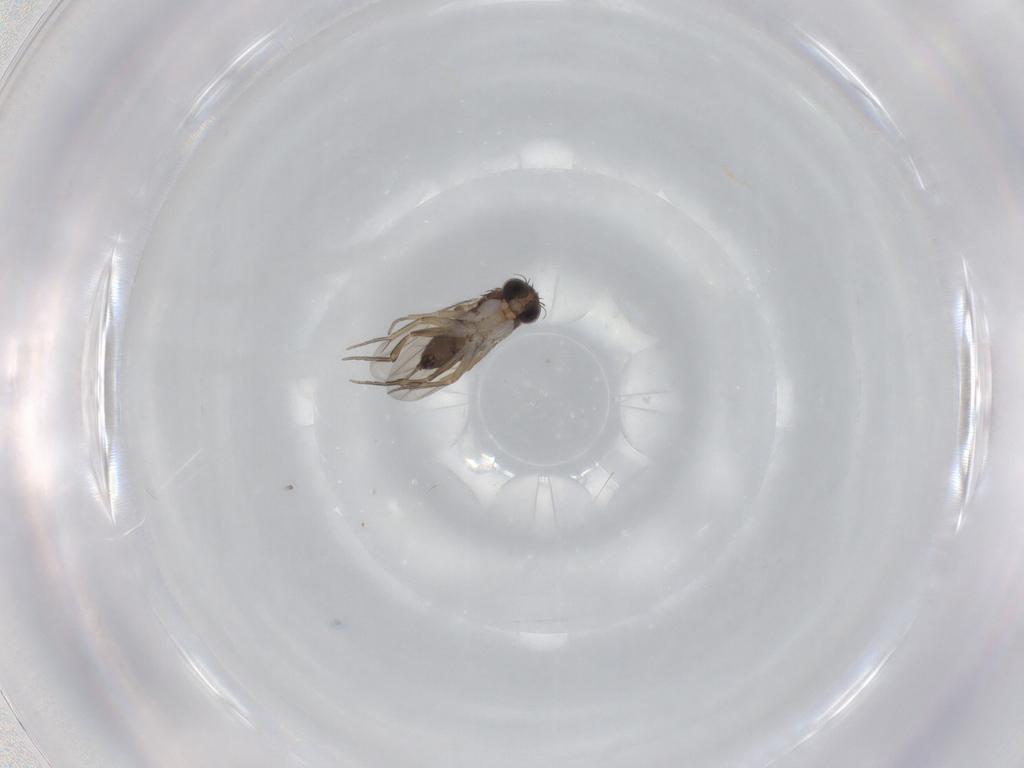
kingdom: Animalia
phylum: Arthropoda
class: Insecta
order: Diptera
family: Phoridae
